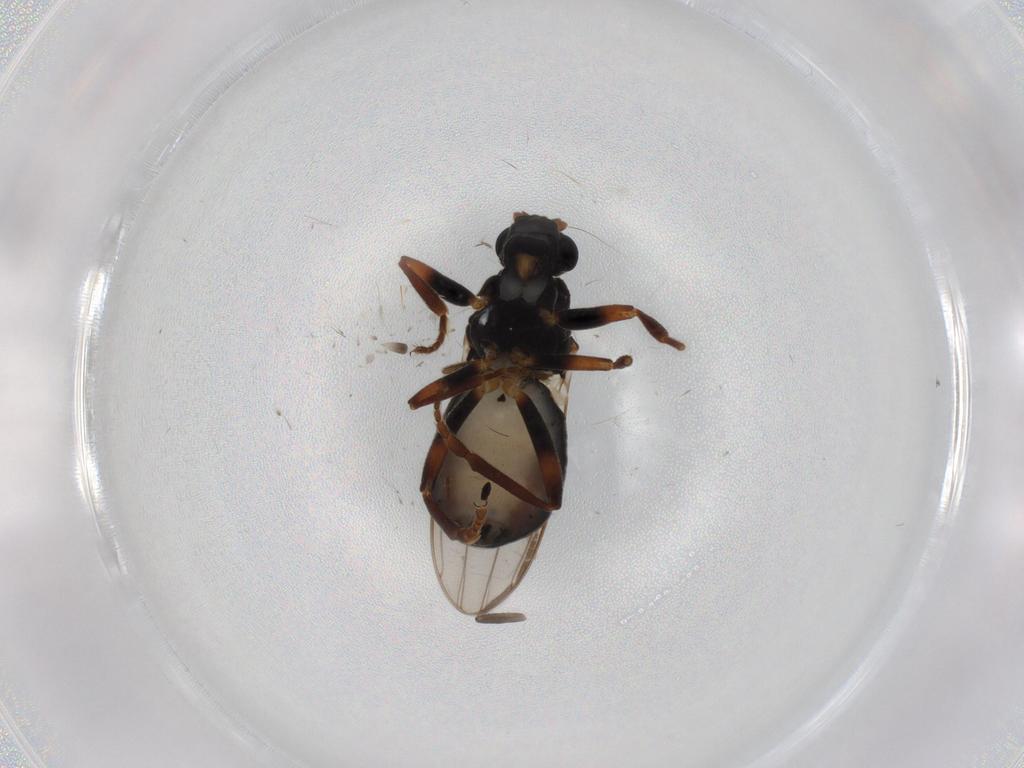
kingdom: Animalia
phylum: Arthropoda
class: Insecta
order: Diptera
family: Sphaeroceridae
